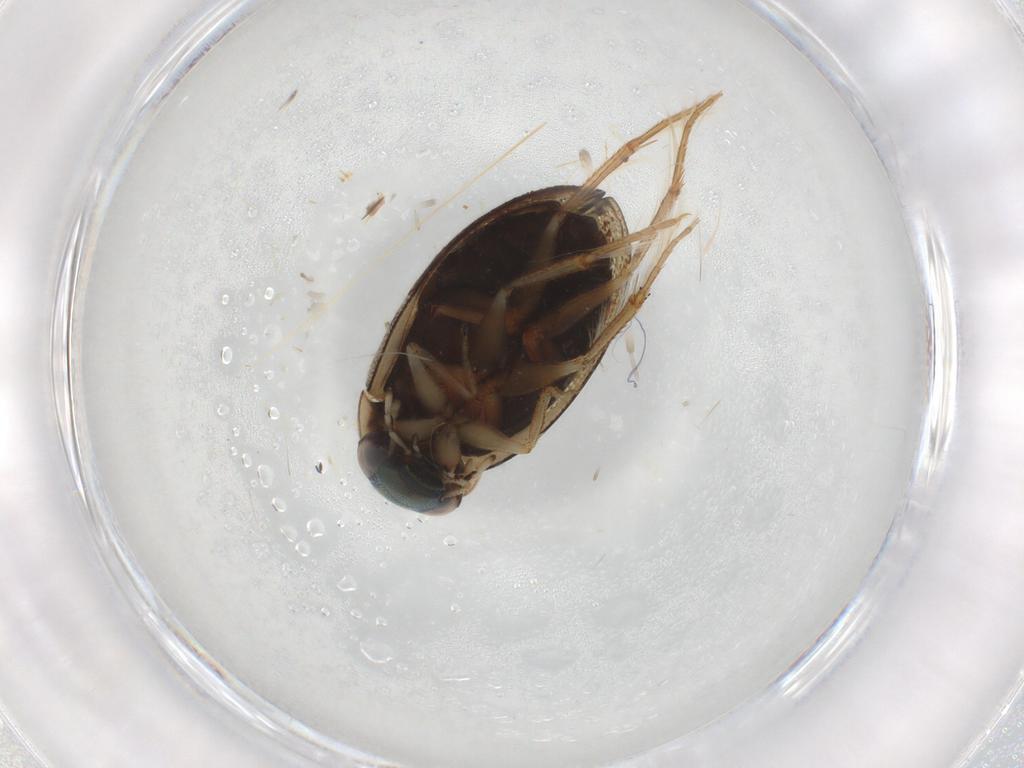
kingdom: Animalia
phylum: Arthropoda
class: Insecta
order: Coleoptera
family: Hydrophilidae
